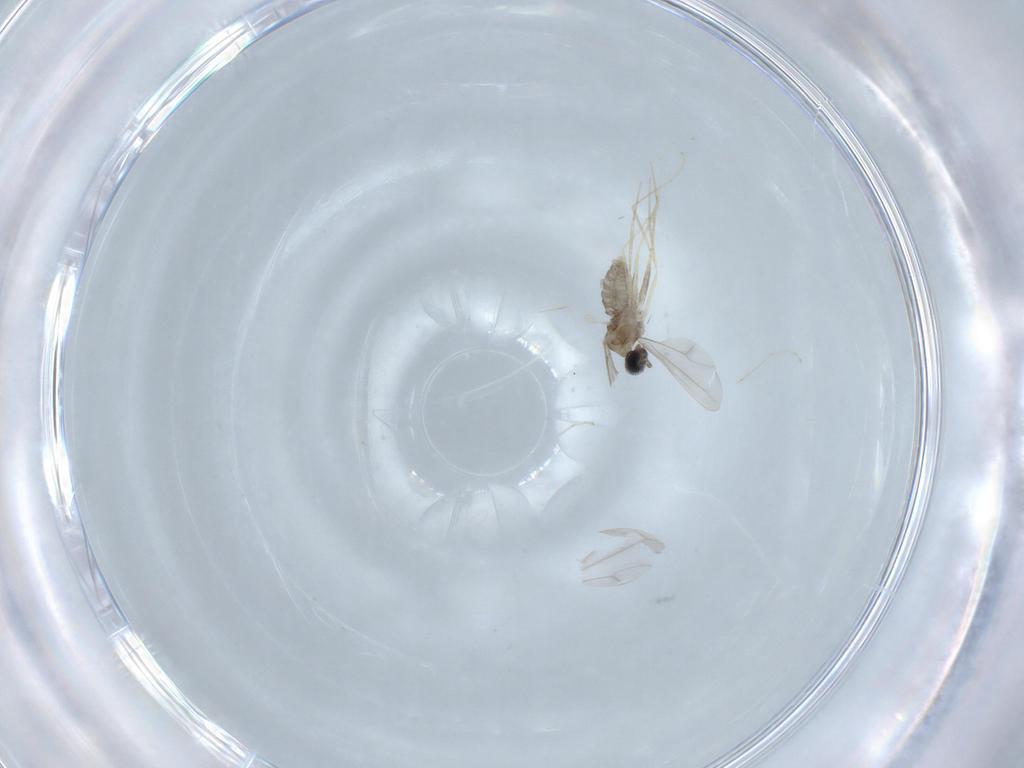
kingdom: Animalia
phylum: Arthropoda
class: Insecta
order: Diptera
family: Cecidomyiidae
